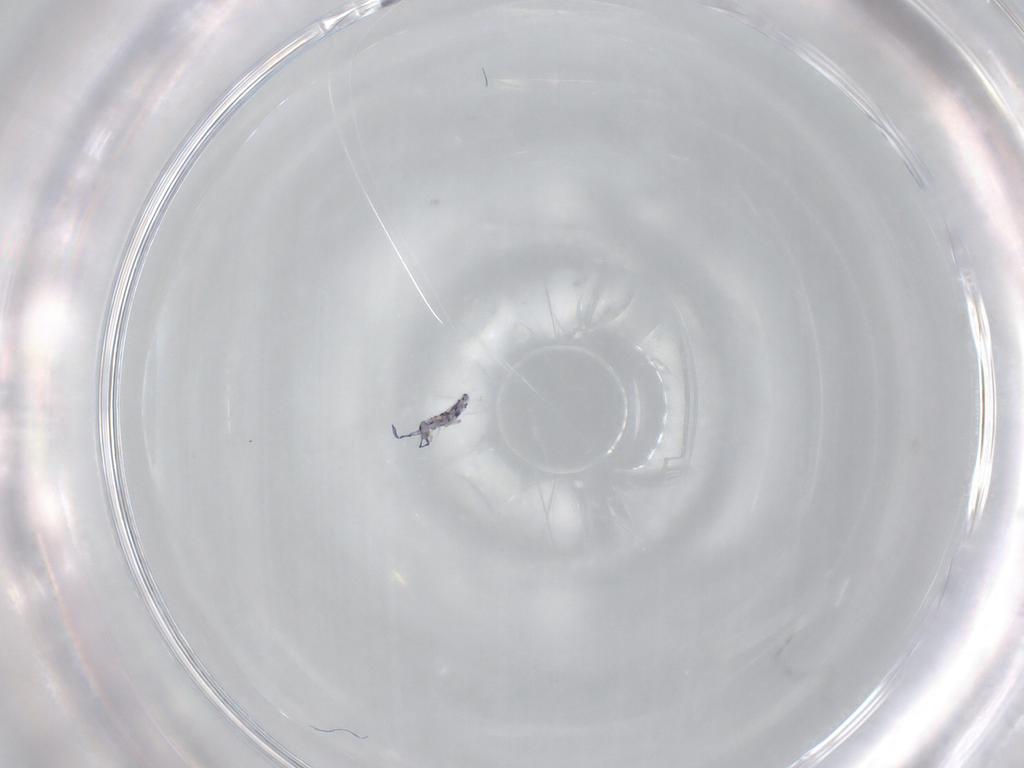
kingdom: Animalia
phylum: Arthropoda
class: Collembola
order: Entomobryomorpha
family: Entomobryidae
